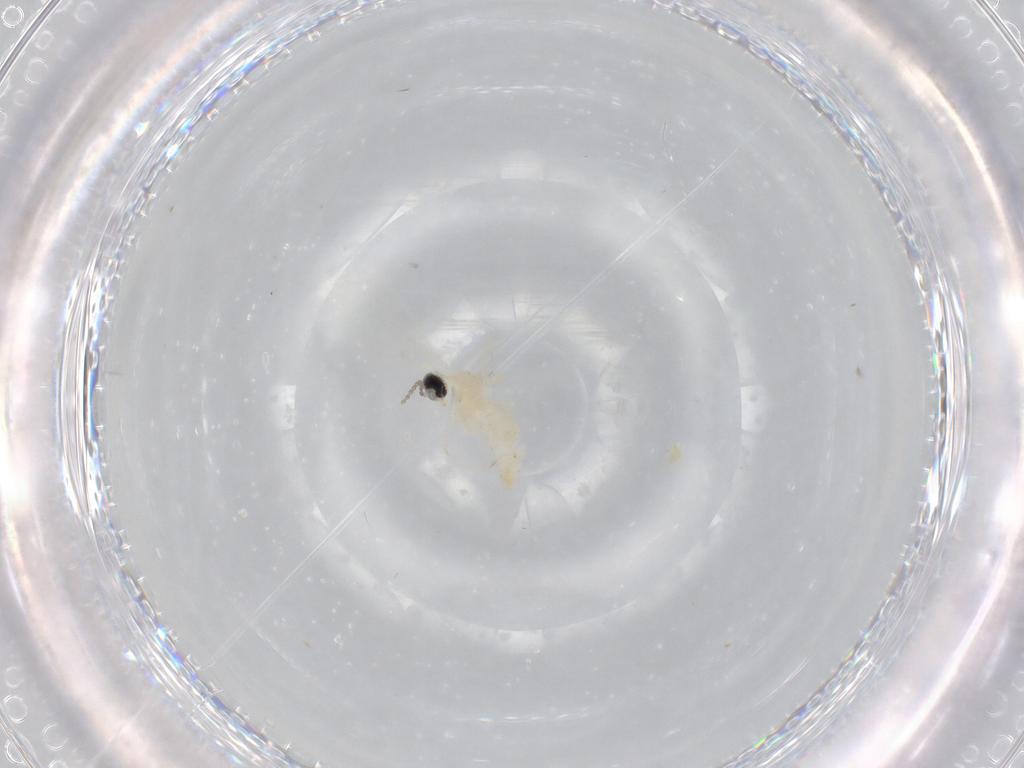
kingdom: Animalia
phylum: Arthropoda
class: Insecta
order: Diptera
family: Cecidomyiidae
